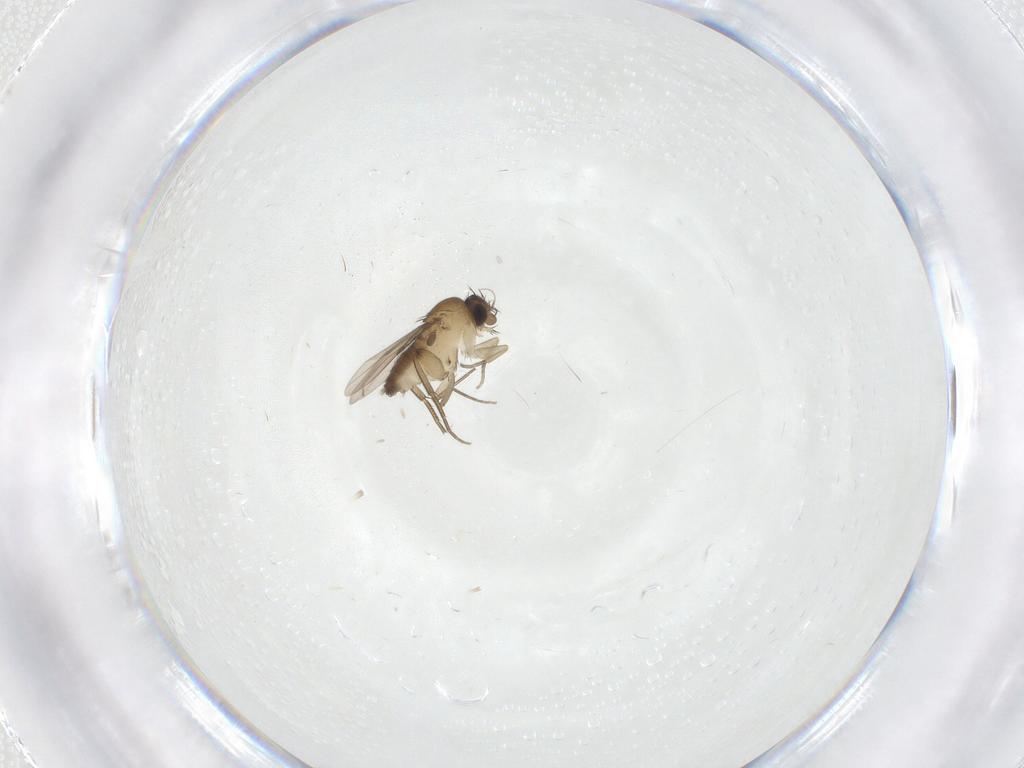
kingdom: Animalia
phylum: Arthropoda
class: Insecta
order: Diptera
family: Phoridae
